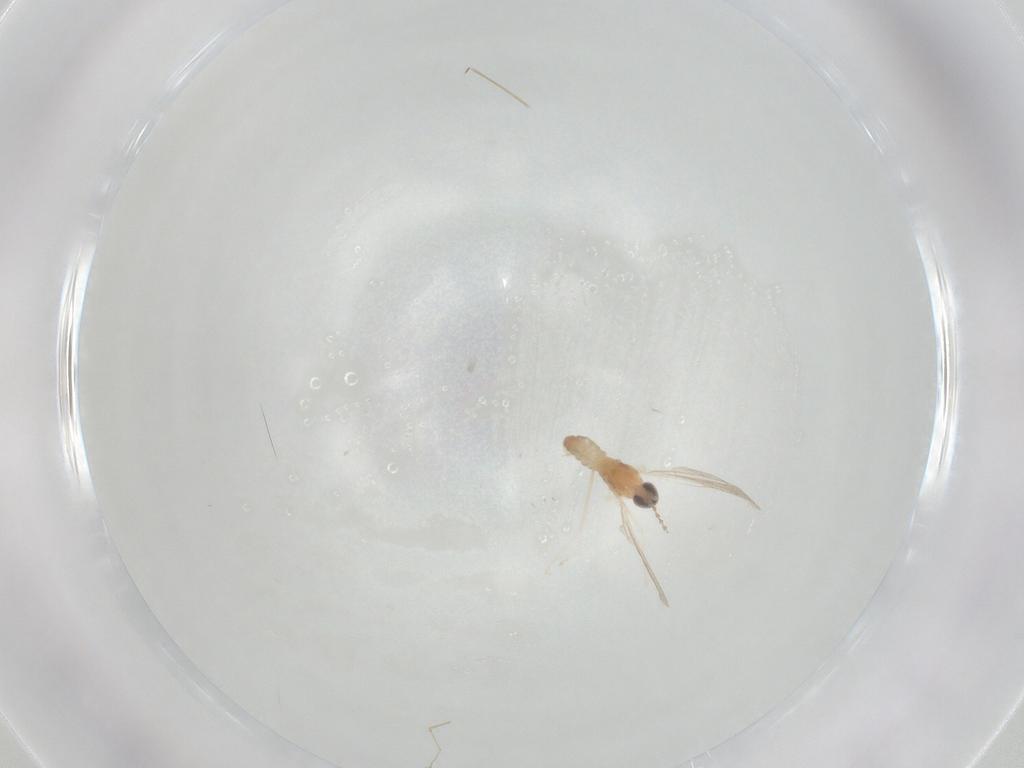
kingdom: Animalia
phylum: Arthropoda
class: Insecta
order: Diptera
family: Cecidomyiidae
